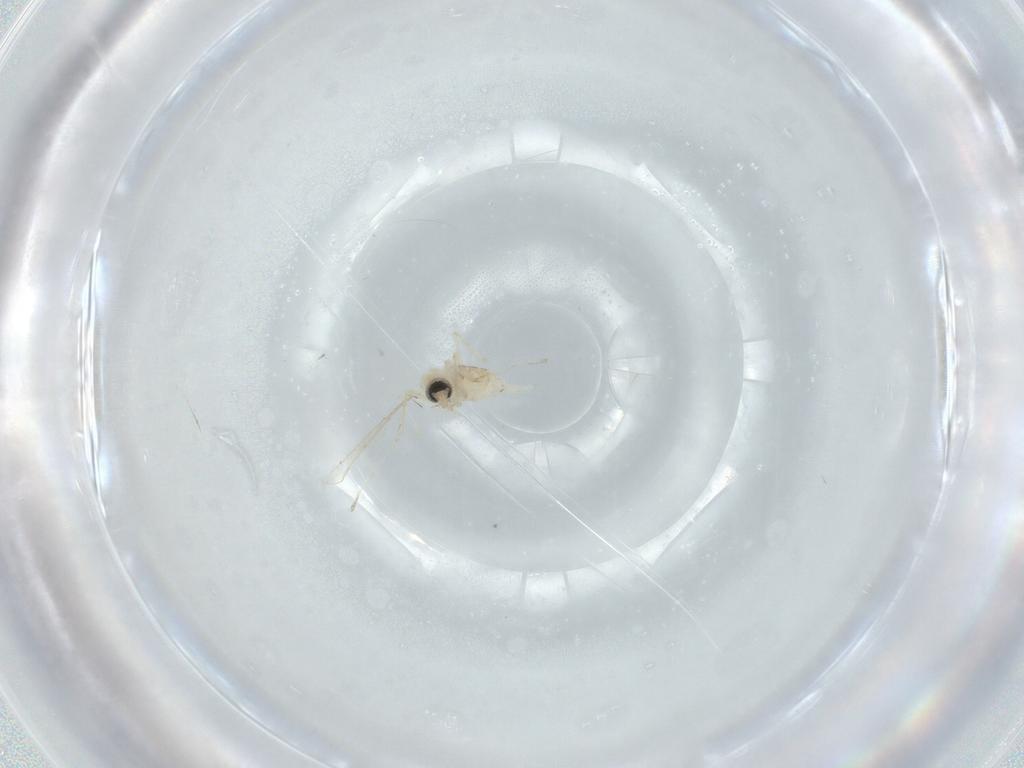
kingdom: Animalia
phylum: Arthropoda
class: Insecta
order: Diptera
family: Cecidomyiidae
